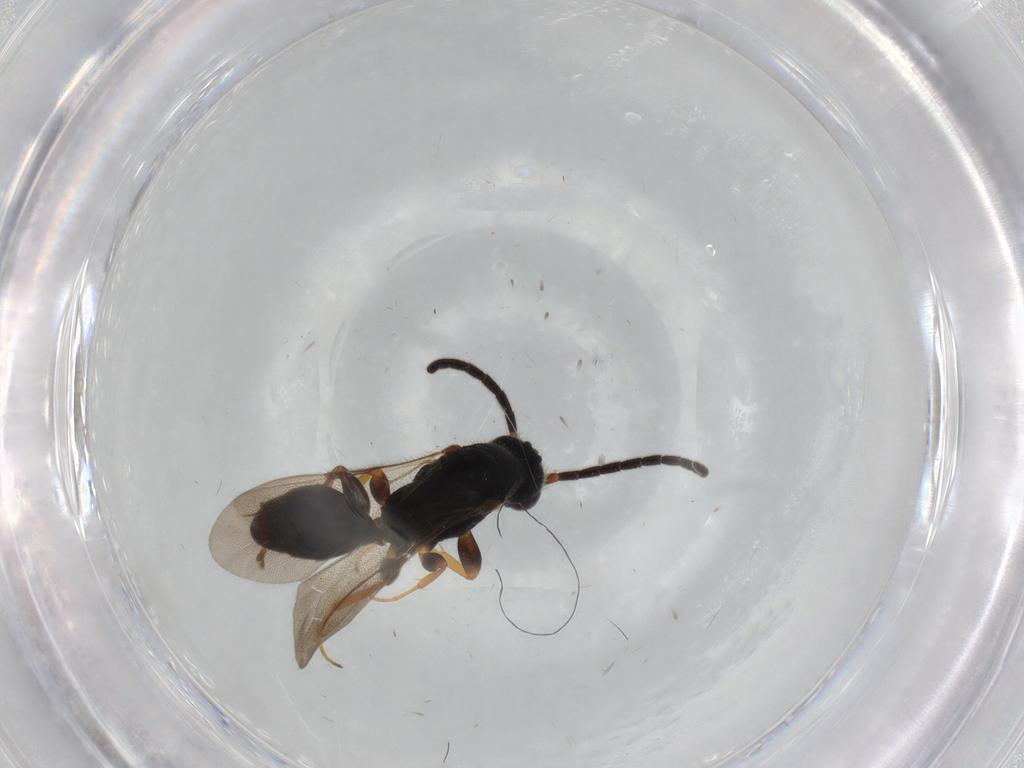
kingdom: Animalia
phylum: Arthropoda
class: Insecta
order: Hymenoptera
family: Bethylidae
